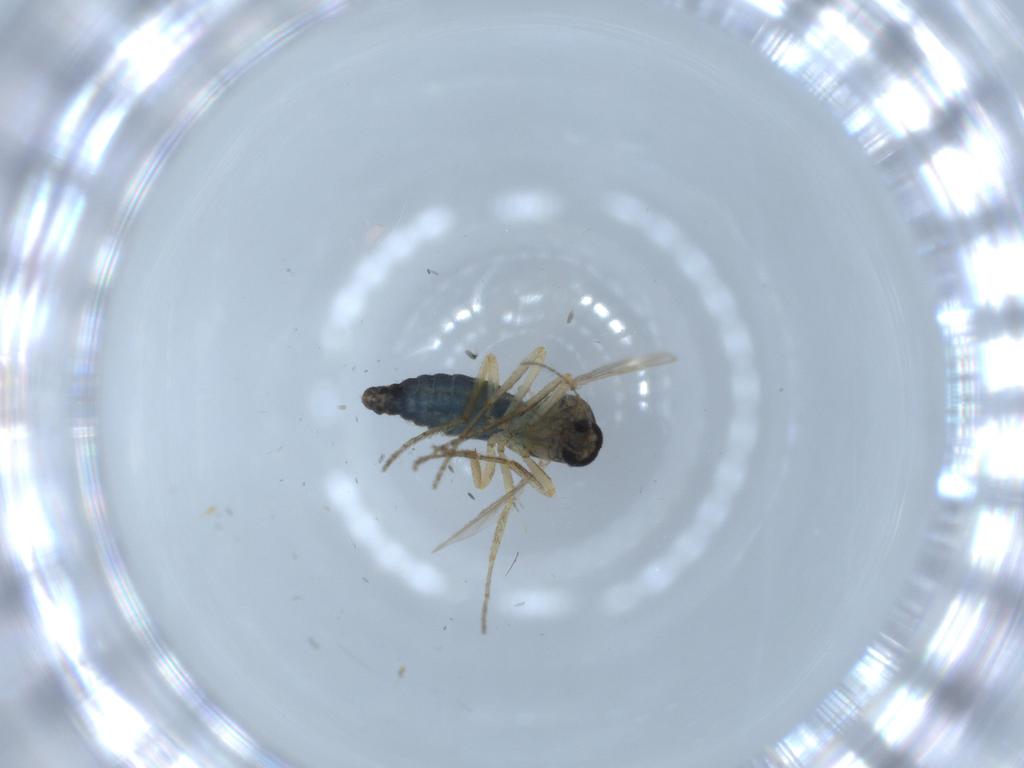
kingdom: Animalia
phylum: Arthropoda
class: Insecta
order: Diptera
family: Ceratopogonidae
